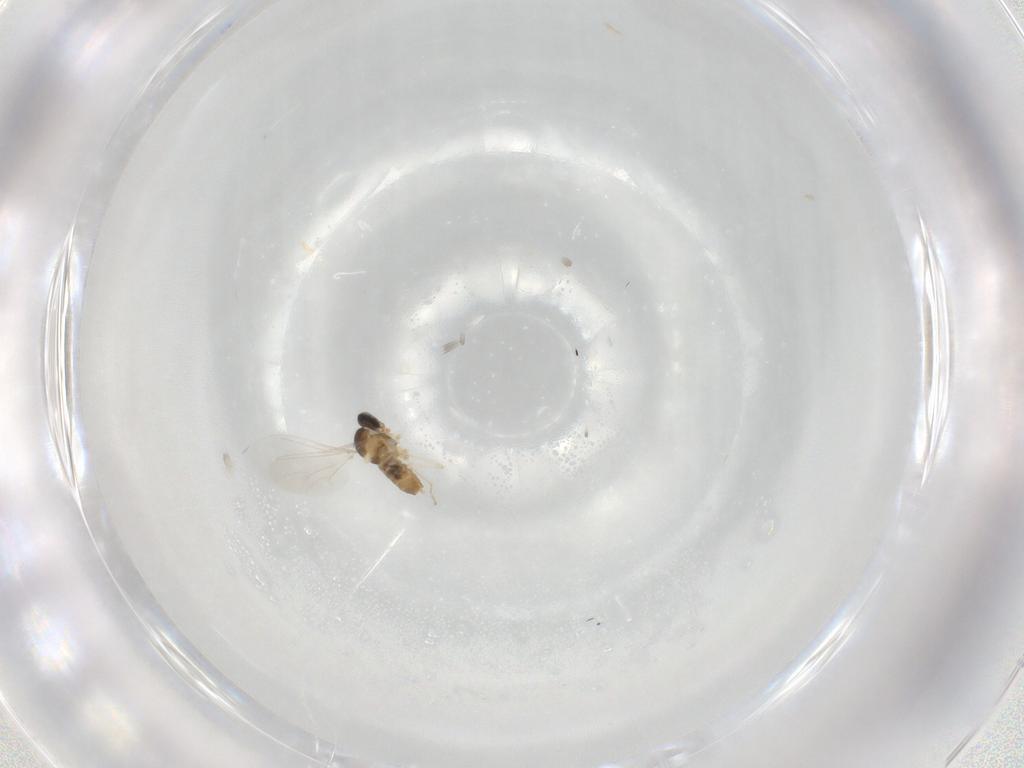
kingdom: Animalia
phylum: Arthropoda
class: Insecta
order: Diptera
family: Cecidomyiidae
